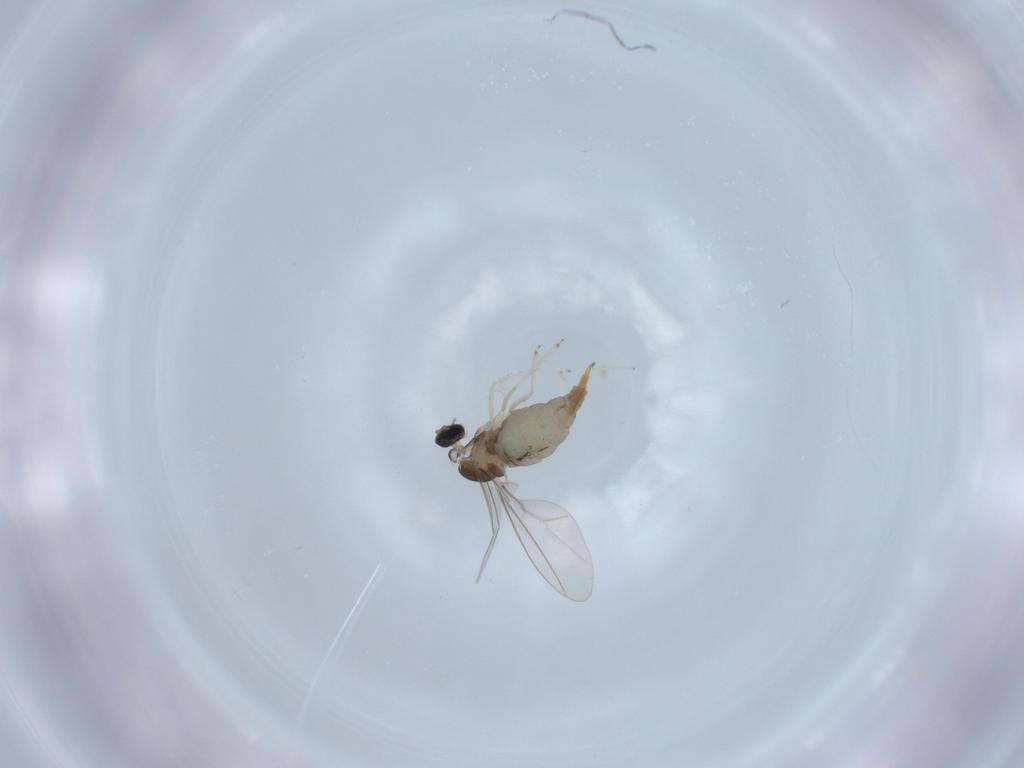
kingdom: Animalia
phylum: Arthropoda
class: Insecta
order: Diptera
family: Cecidomyiidae
